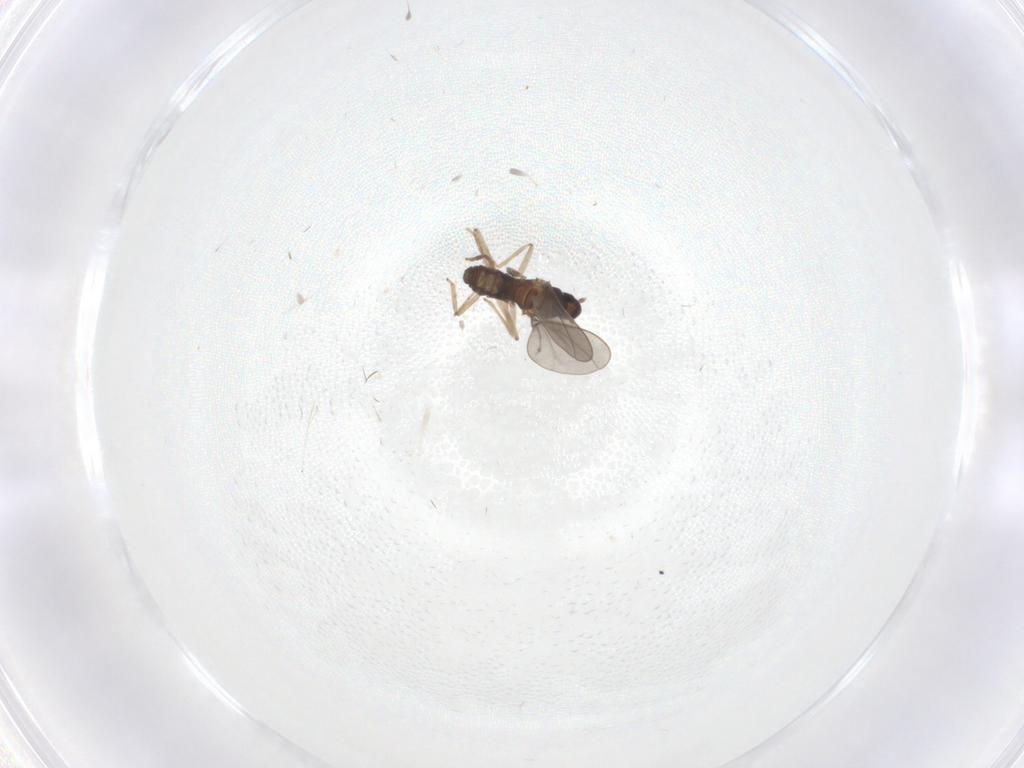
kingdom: Animalia
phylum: Arthropoda
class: Insecta
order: Diptera
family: Cecidomyiidae
